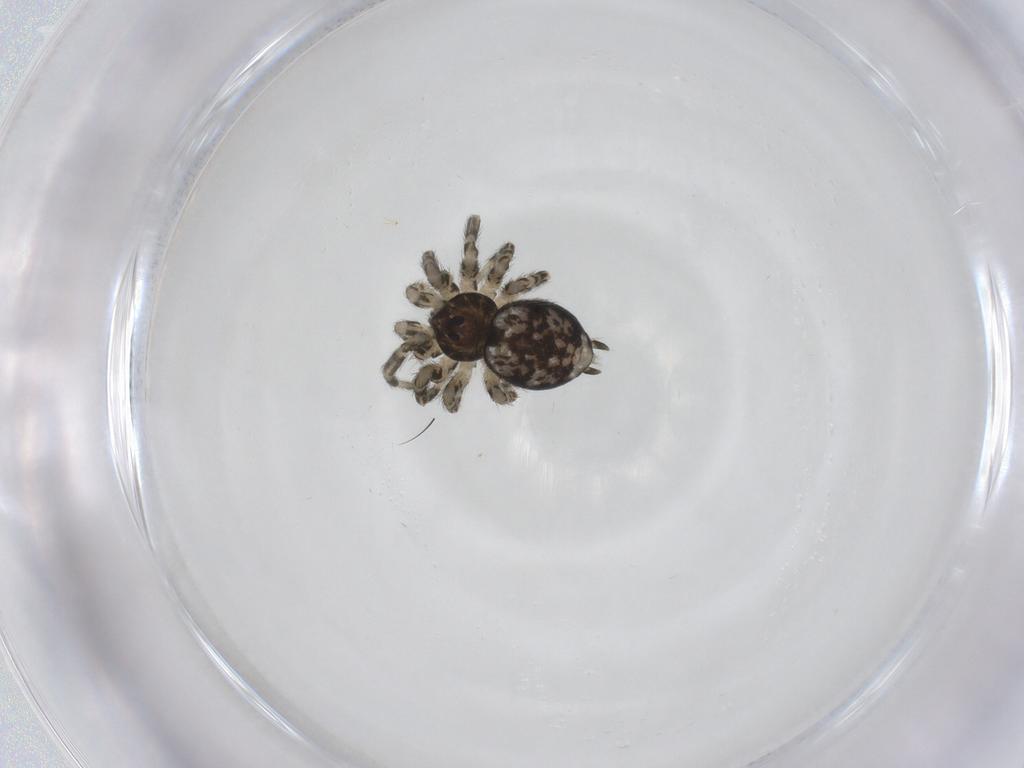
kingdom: Animalia
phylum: Arthropoda
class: Arachnida
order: Araneae
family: Oecobiidae
